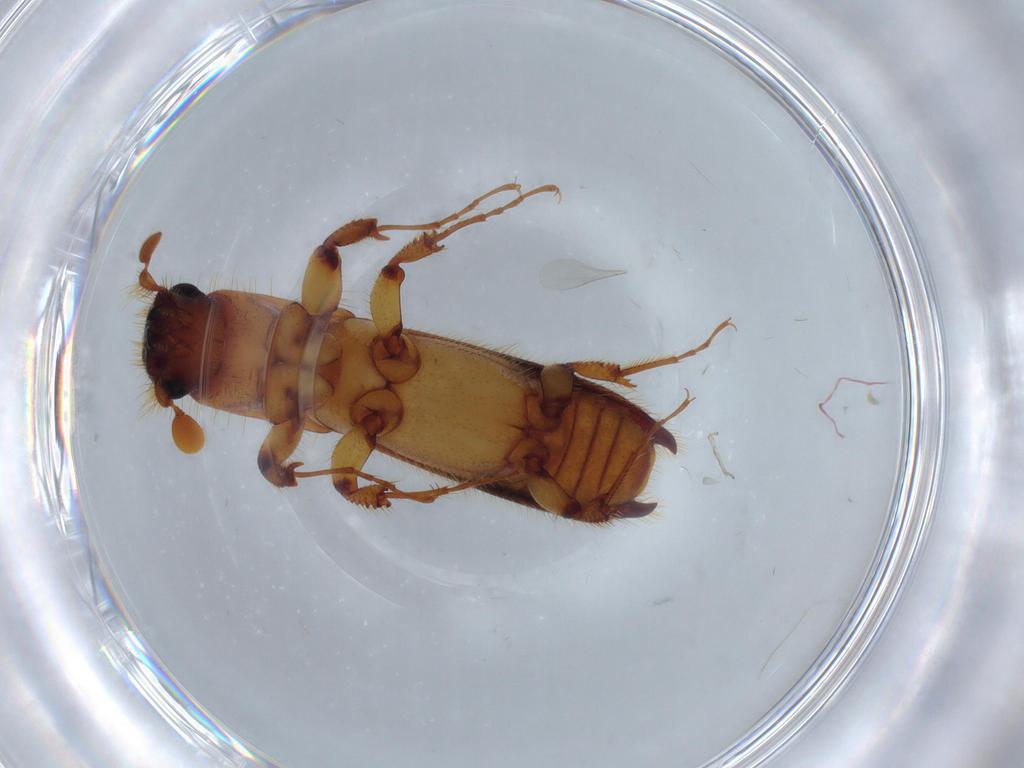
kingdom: Animalia
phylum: Arthropoda
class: Insecta
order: Coleoptera
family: Curculionidae
